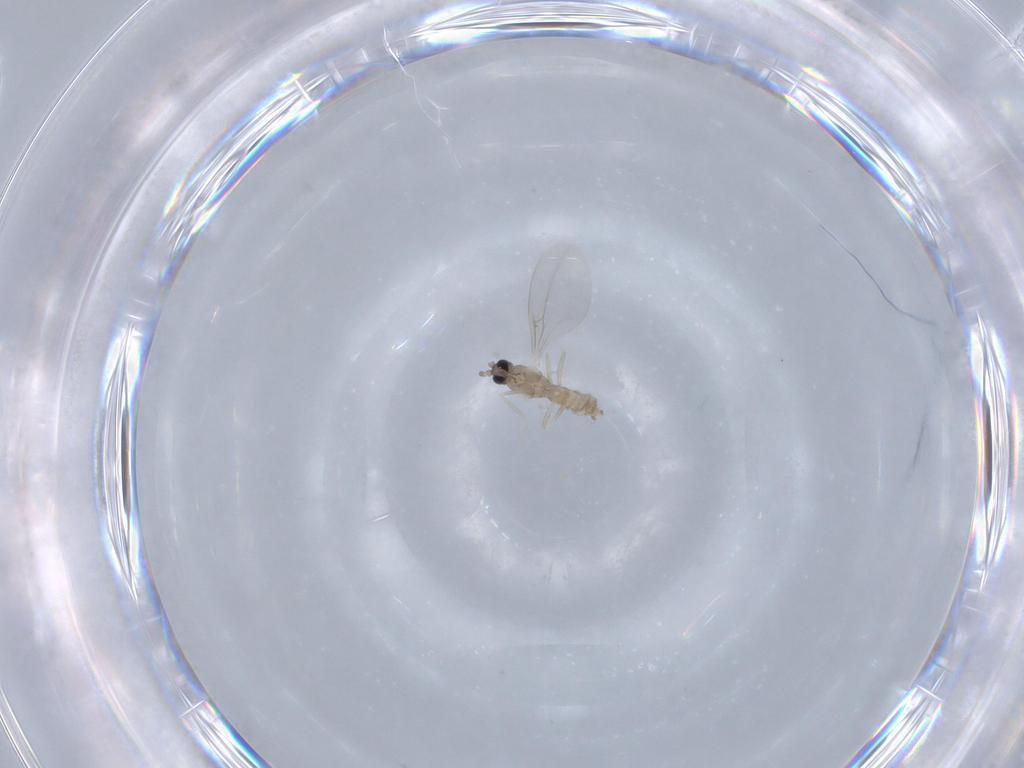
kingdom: Animalia
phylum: Arthropoda
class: Insecta
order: Diptera
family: Cecidomyiidae
